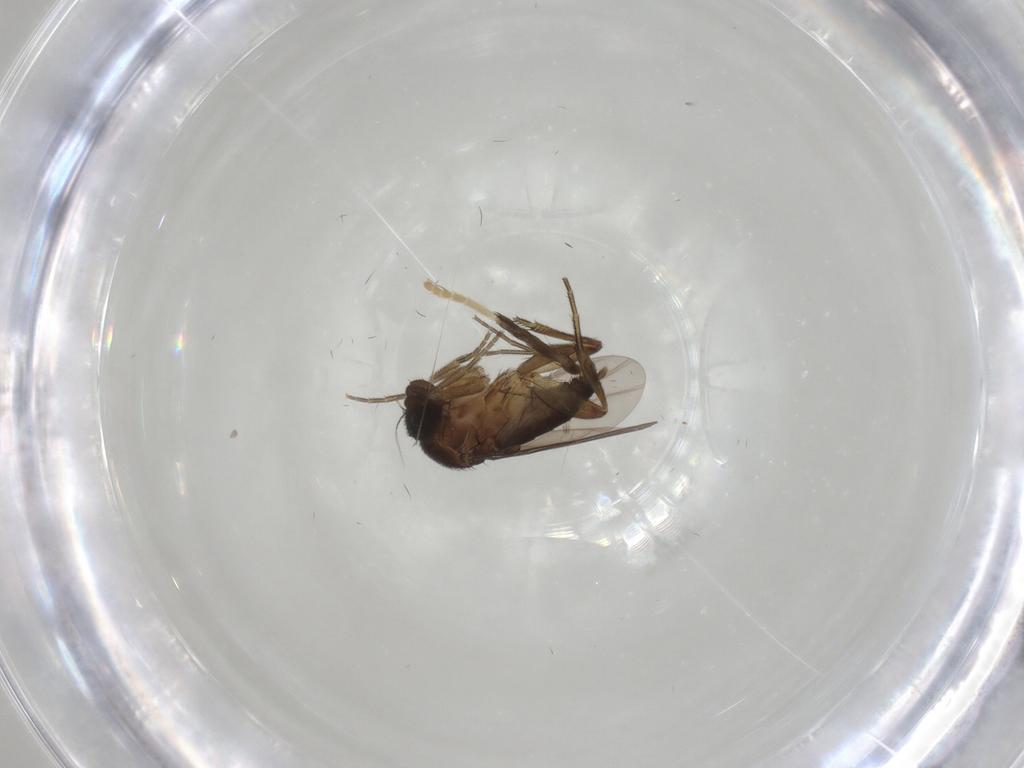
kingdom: Animalia
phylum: Arthropoda
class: Insecta
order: Diptera
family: Phoridae
